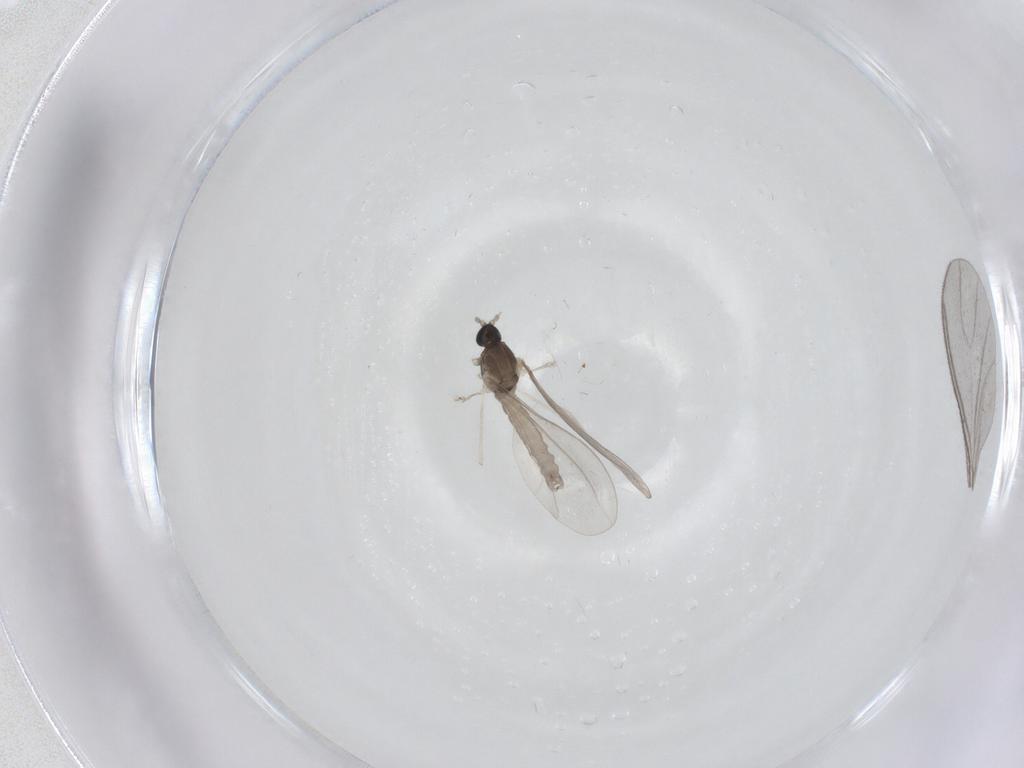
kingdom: Animalia
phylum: Arthropoda
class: Insecta
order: Diptera
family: Cecidomyiidae
